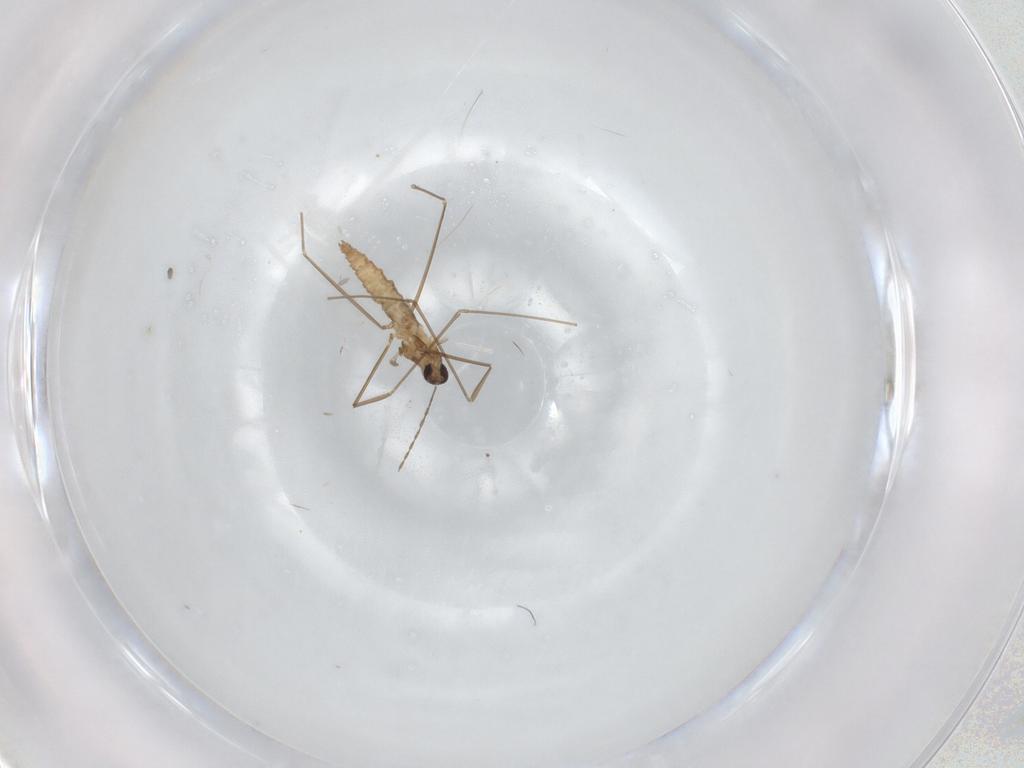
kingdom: Animalia
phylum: Arthropoda
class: Insecta
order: Diptera
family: Cecidomyiidae
